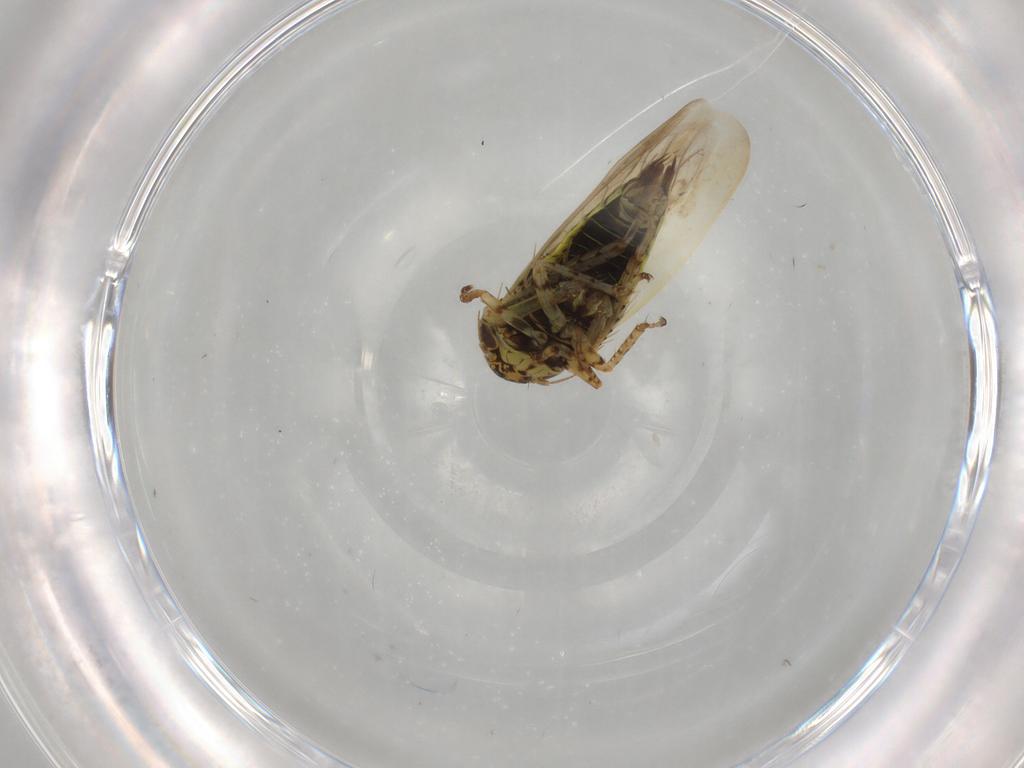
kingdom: Animalia
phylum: Arthropoda
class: Insecta
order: Hemiptera
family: Cicadellidae
